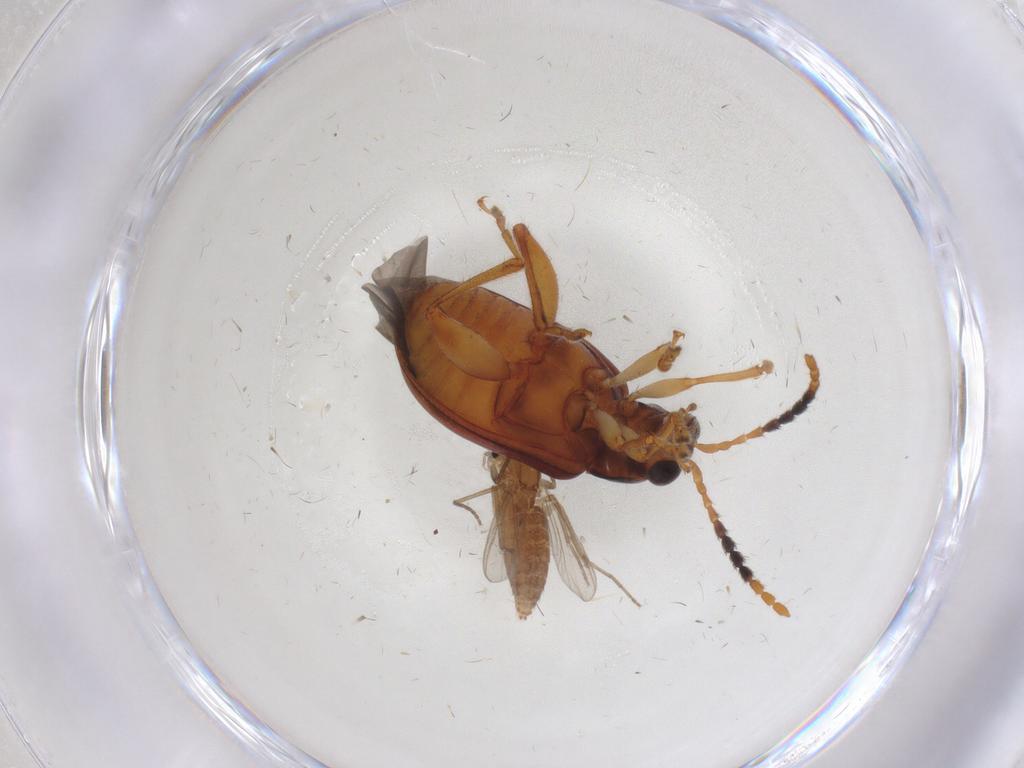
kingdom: Animalia
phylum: Arthropoda
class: Insecta
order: Coleoptera
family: Chrysomelidae
